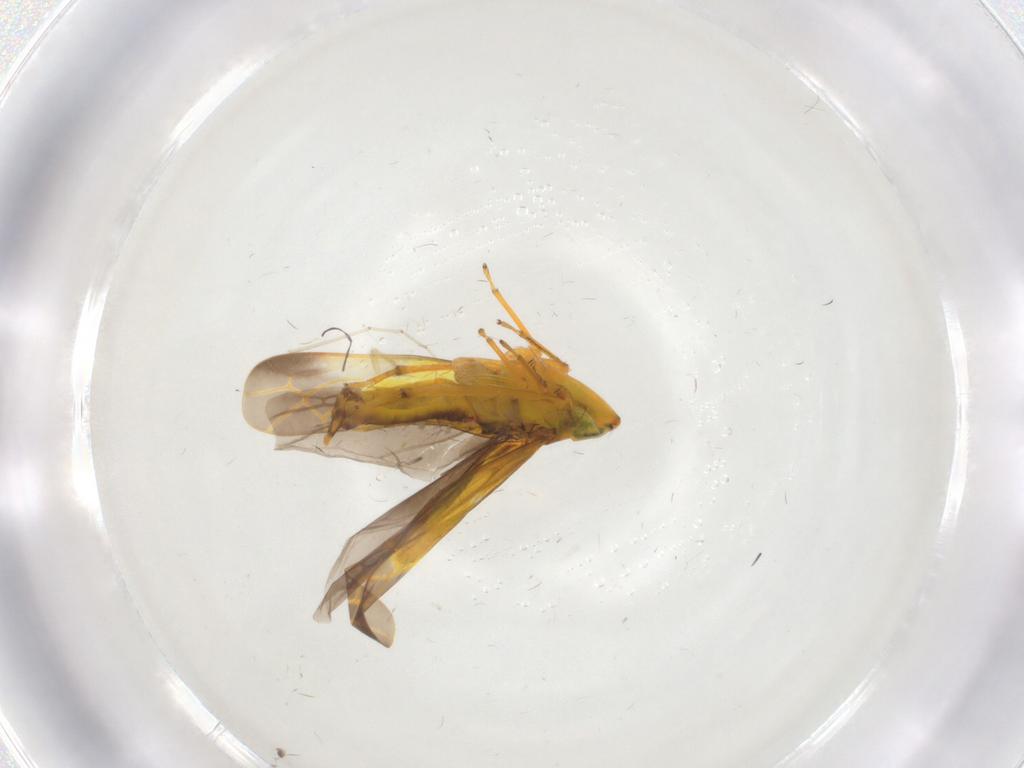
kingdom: Animalia
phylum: Arthropoda
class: Insecta
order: Hemiptera
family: Cicadellidae
